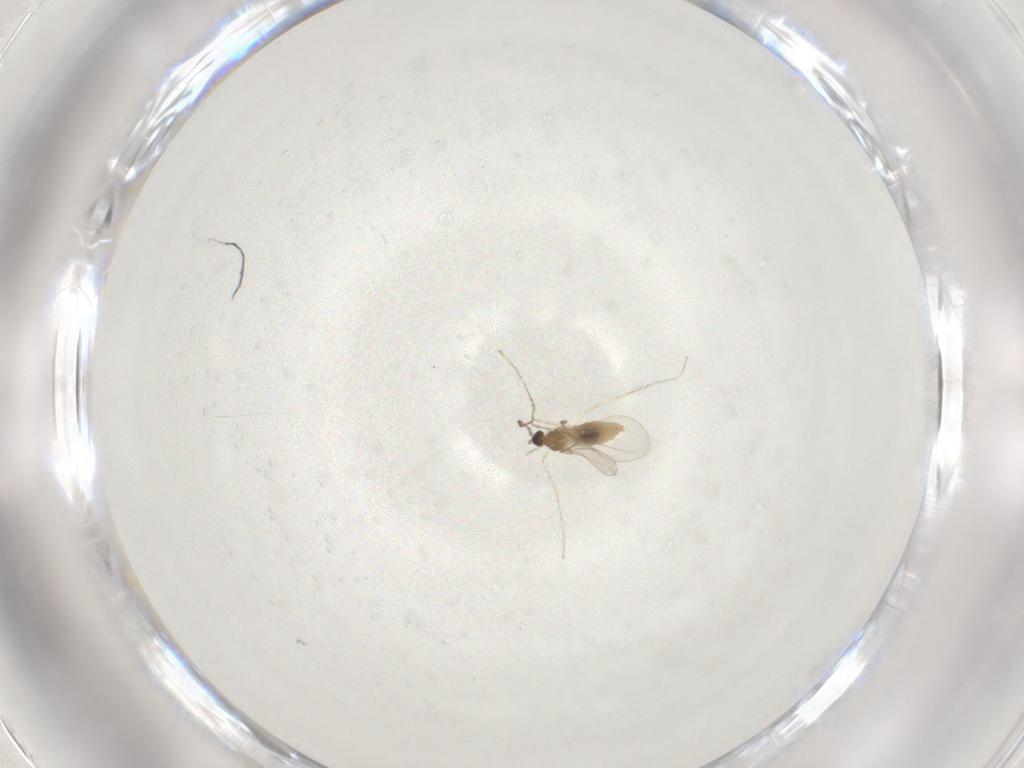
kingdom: Animalia
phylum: Arthropoda
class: Insecta
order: Diptera
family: Cecidomyiidae
